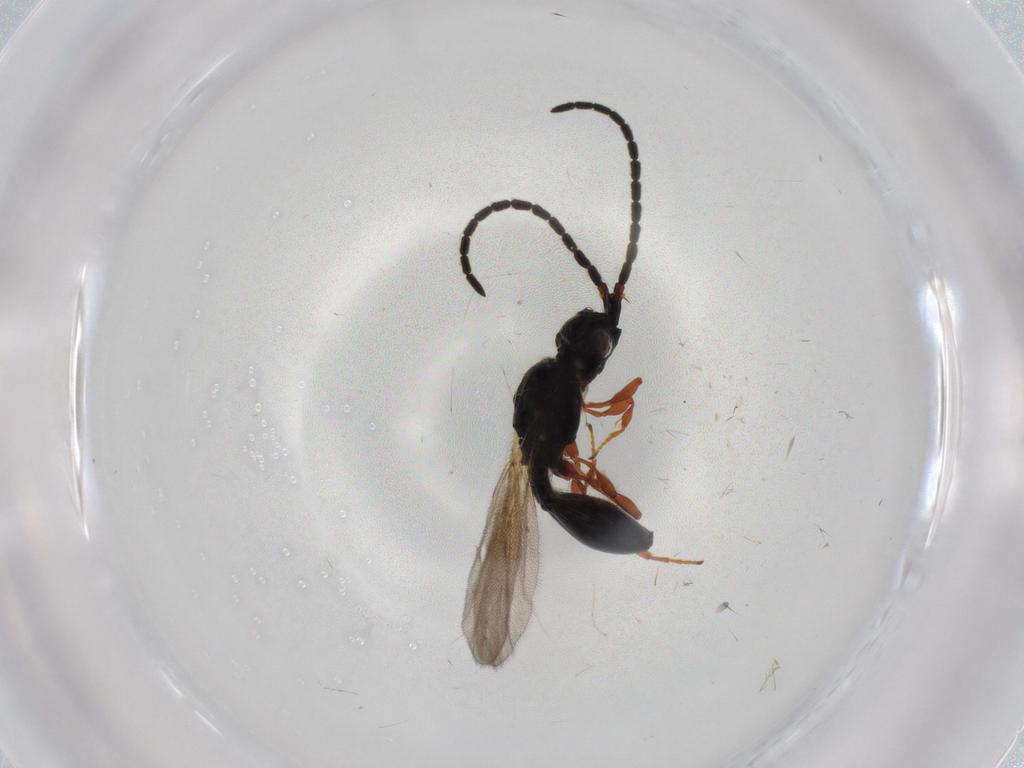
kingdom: Animalia
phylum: Arthropoda
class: Insecta
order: Hymenoptera
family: Diapriidae
